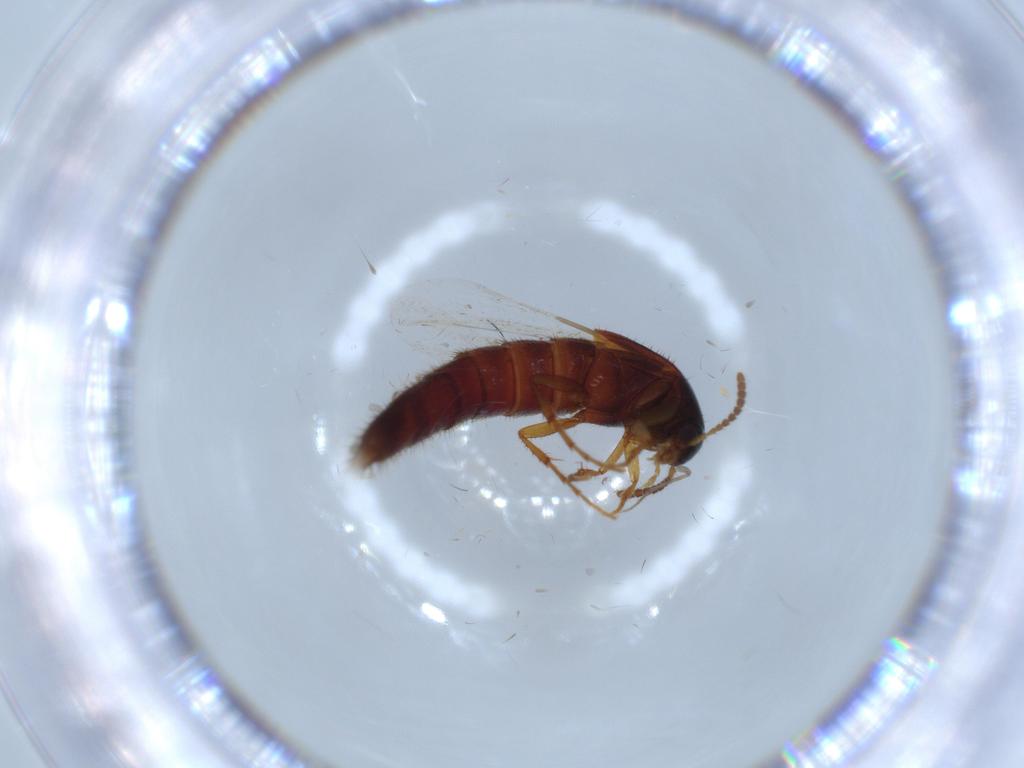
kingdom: Animalia
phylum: Arthropoda
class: Insecta
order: Coleoptera
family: Staphylinidae
